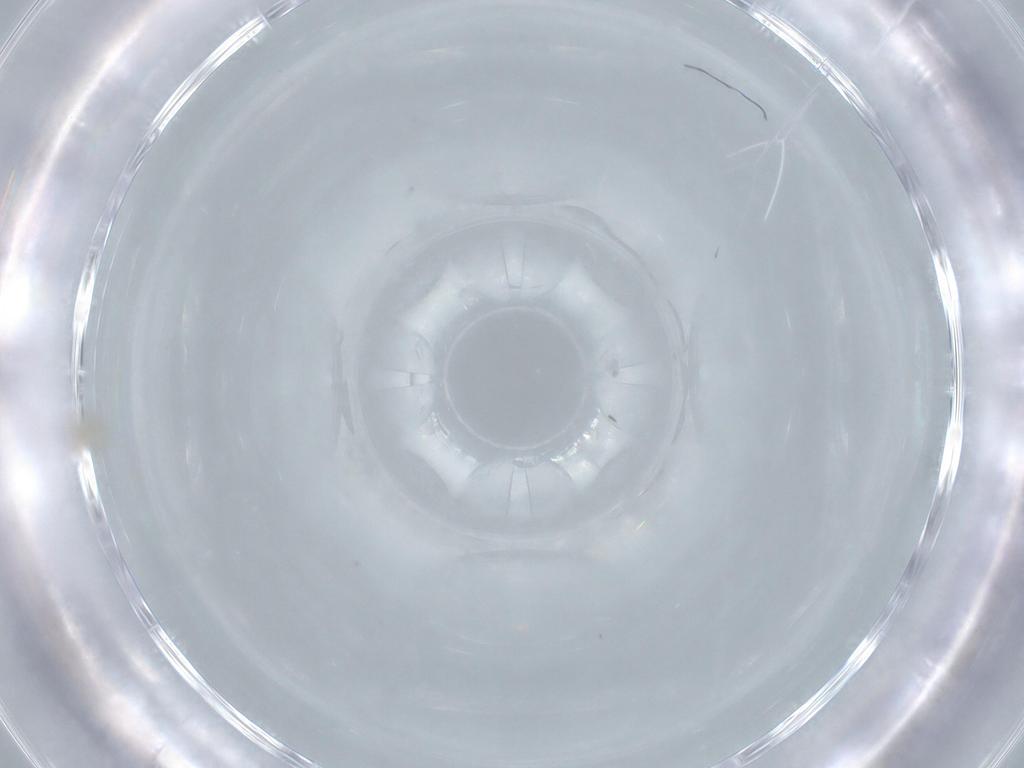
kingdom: Animalia
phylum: Arthropoda
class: Insecta
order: Diptera
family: Cecidomyiidae
